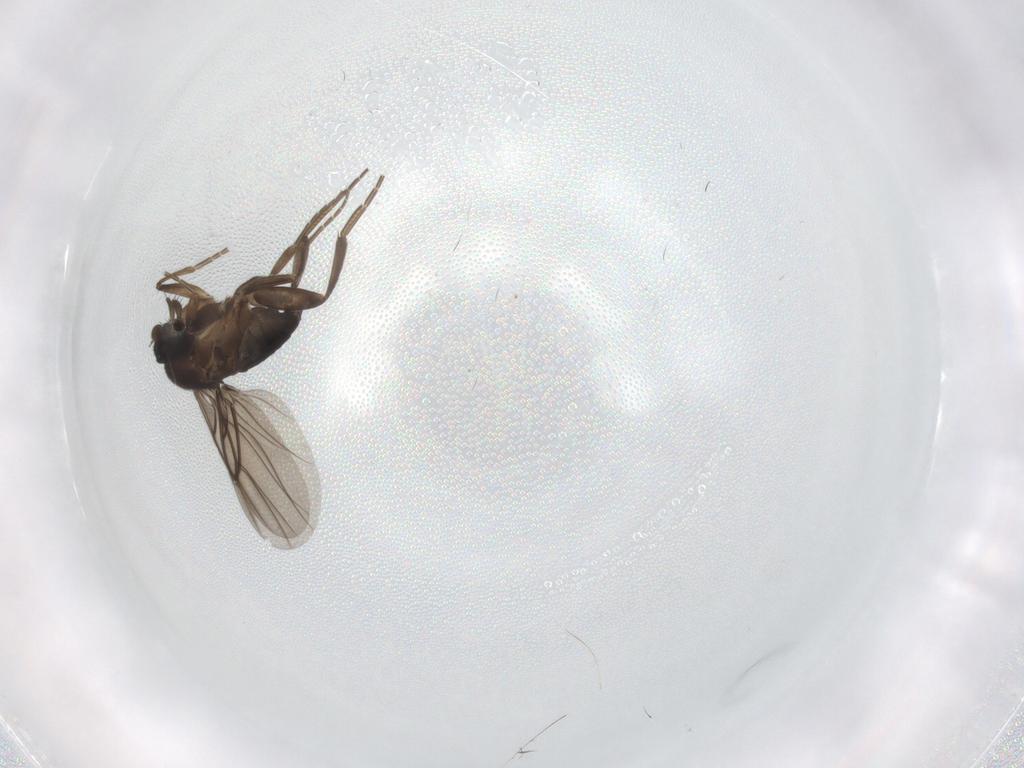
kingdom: Animalia
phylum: Arthropoda
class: Insecta
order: Diptera
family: Phoridae
